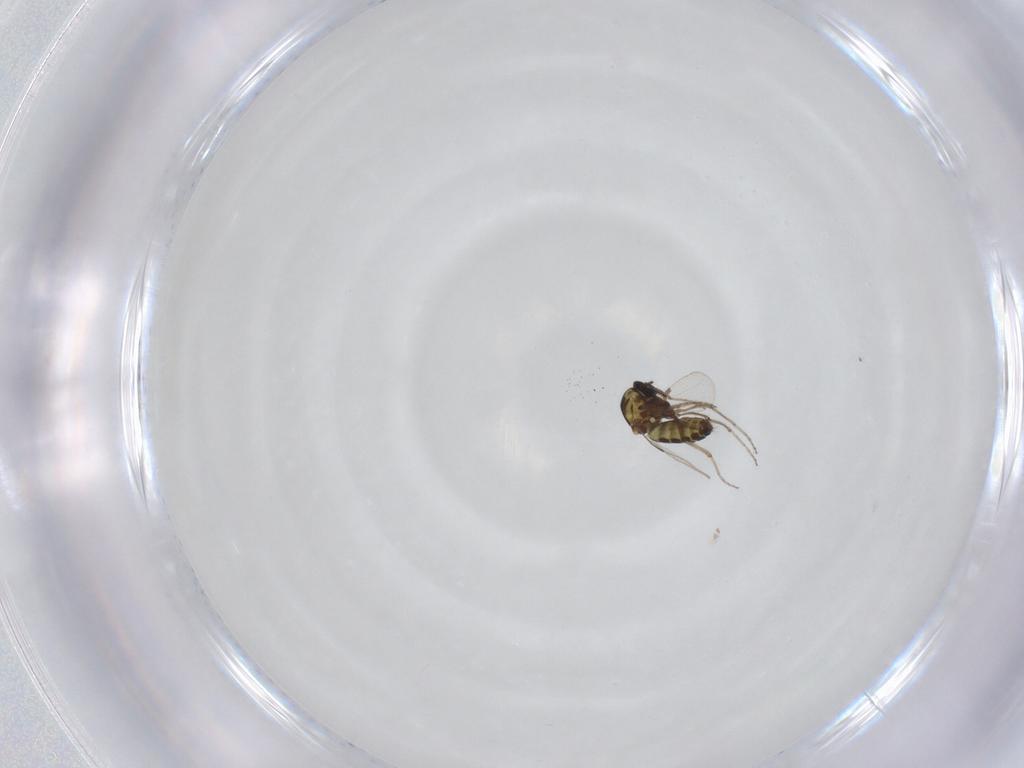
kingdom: Animalia
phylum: Arthropoda
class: Insecta
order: Diptera
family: Ceratopogonidae
